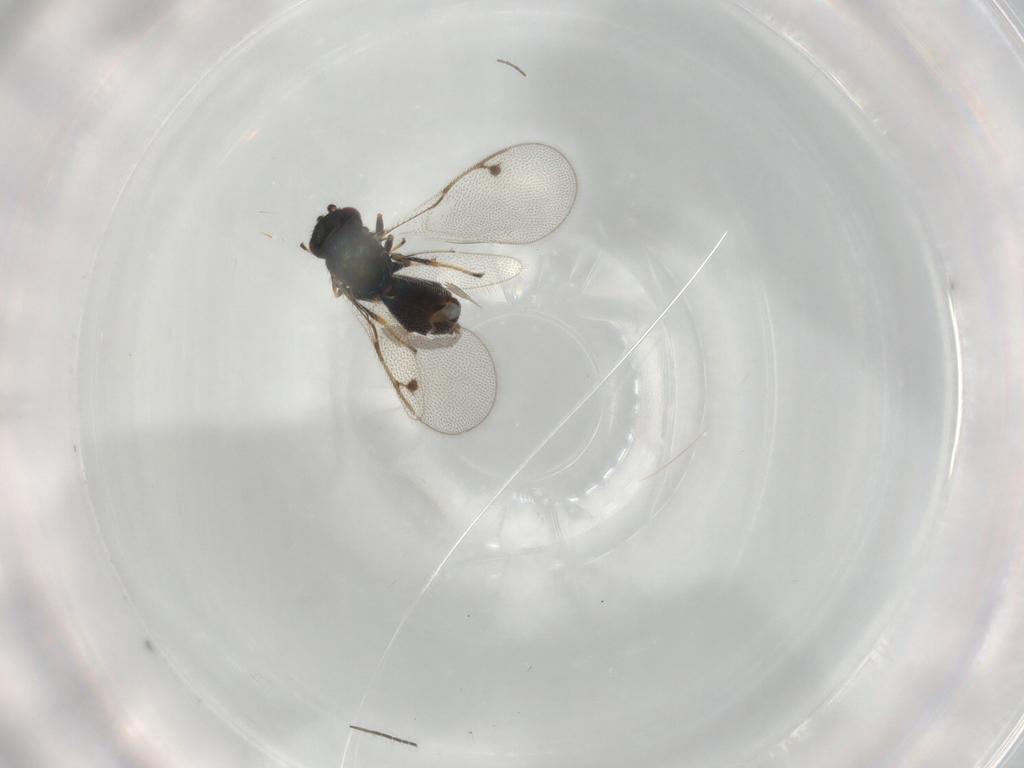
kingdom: Animalia
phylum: Arthropoda
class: Insecta
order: Hymenoptera
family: Pirenidae
